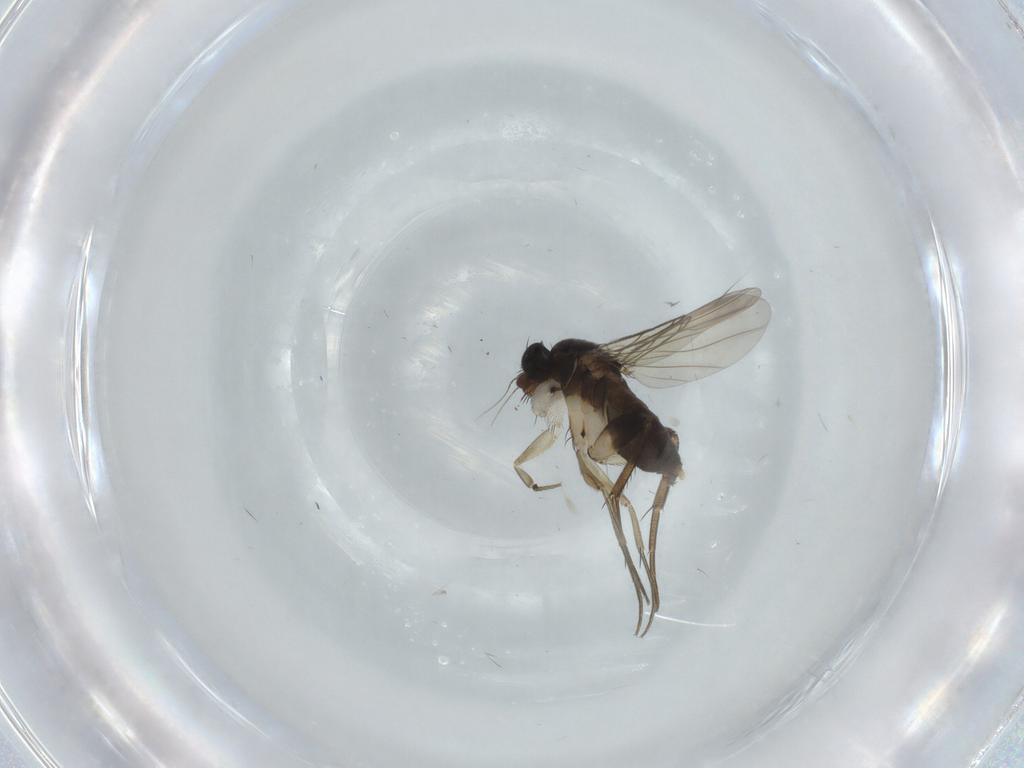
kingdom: Animalia
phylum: Arthropoda
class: Insecta
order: Diptera
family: Phoridae
